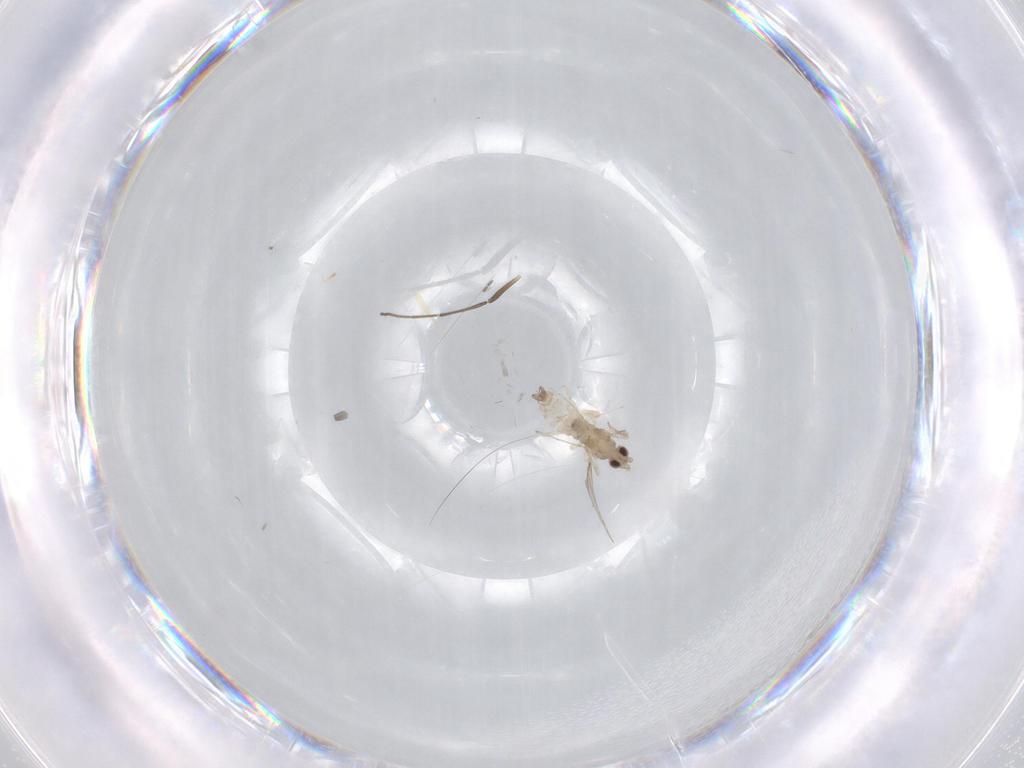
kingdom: Animalia
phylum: Arthropoda
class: Insecta
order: Diptera
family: Sciaridae
